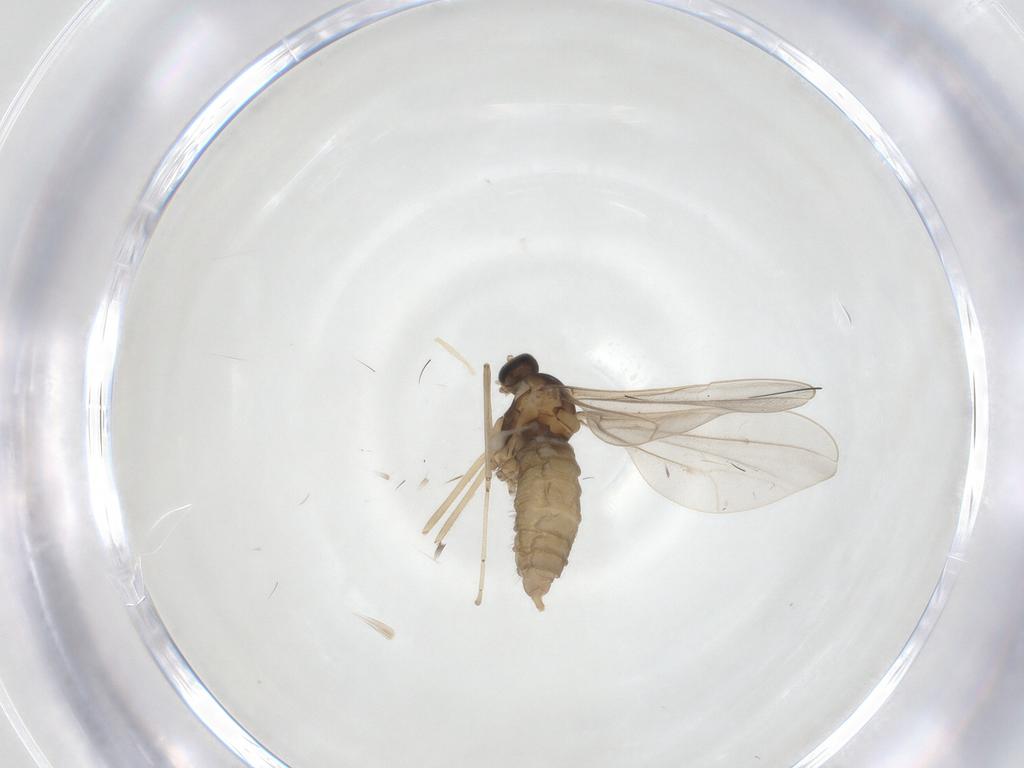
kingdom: Animalia
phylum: Arthropoda
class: Insecta
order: Diptera
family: Cecidomyiidae
